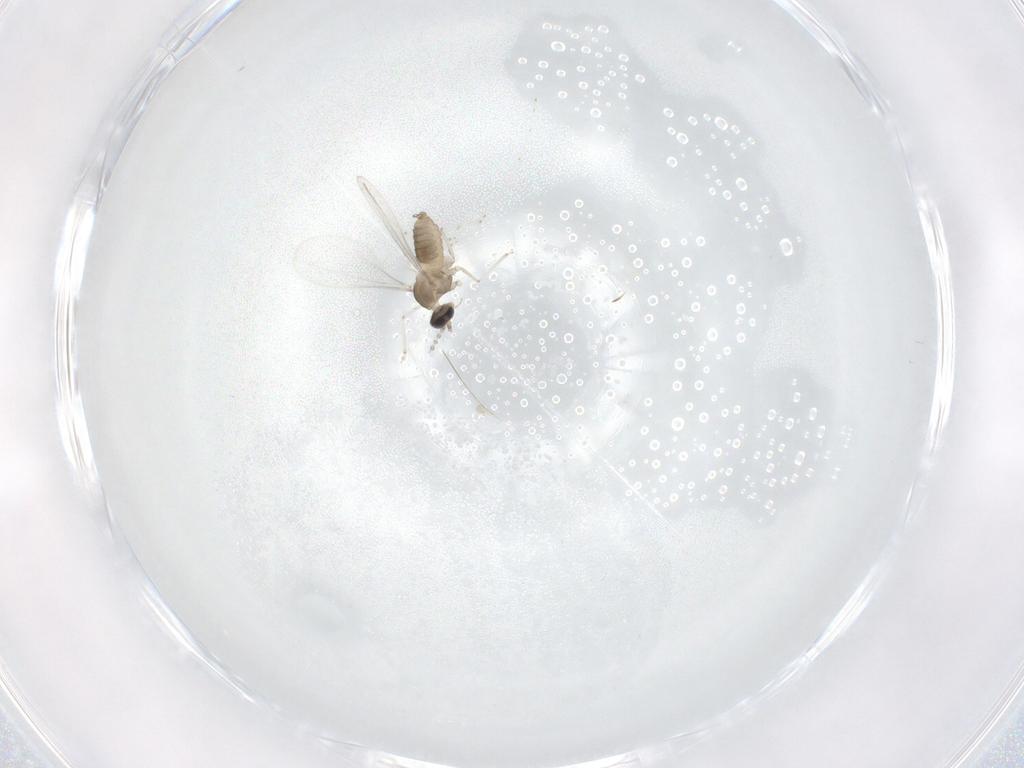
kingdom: Animalia
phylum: Arthropoda
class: Insecta
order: Diptera
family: Cecidomyiidae
